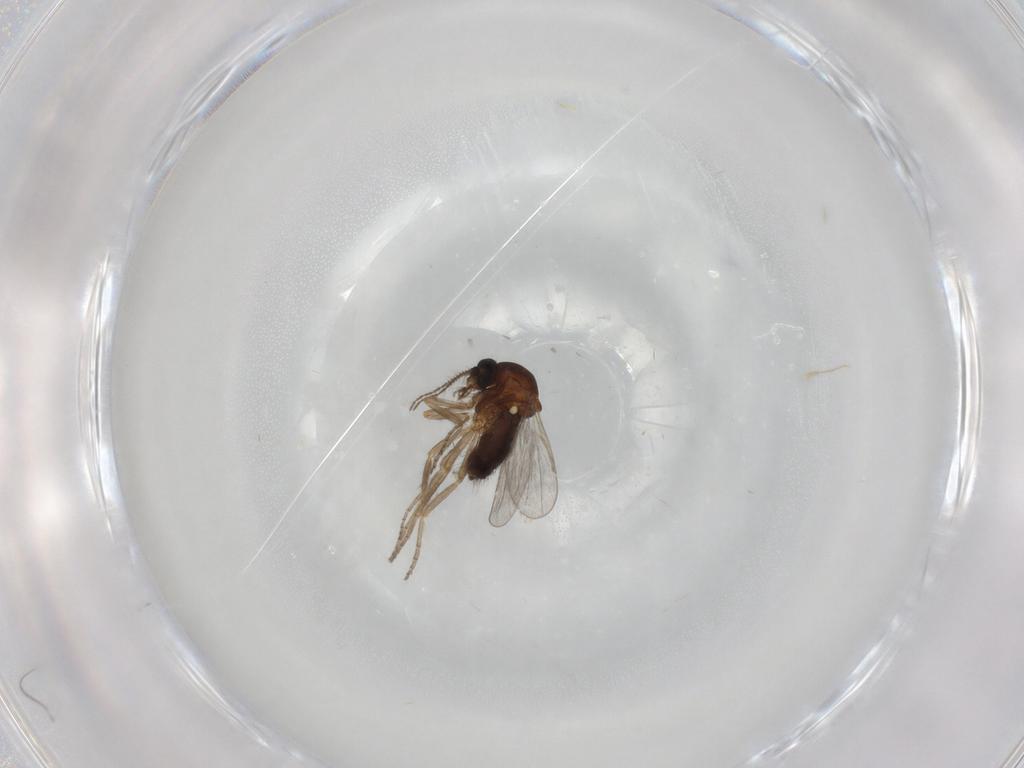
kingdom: Animalia
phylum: Arthropoda
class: Insecta
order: Diptera
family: Ceratopogonidae
